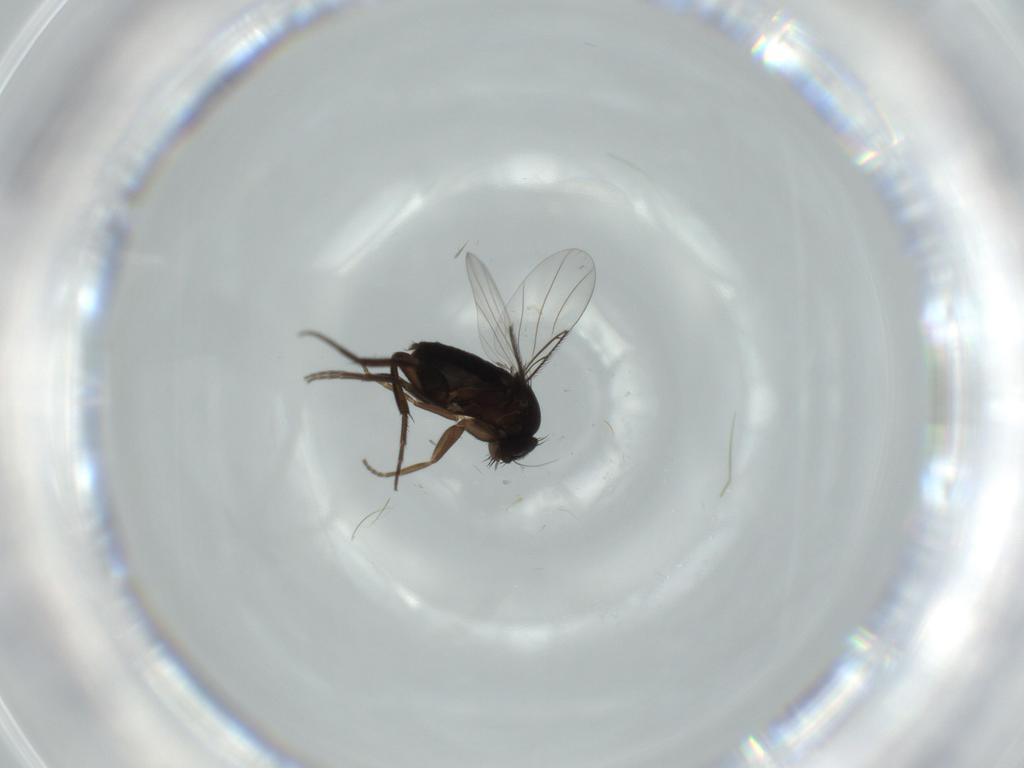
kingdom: Animalia
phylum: Arthropoda
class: Insecta
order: Diptera
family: Phoridae
